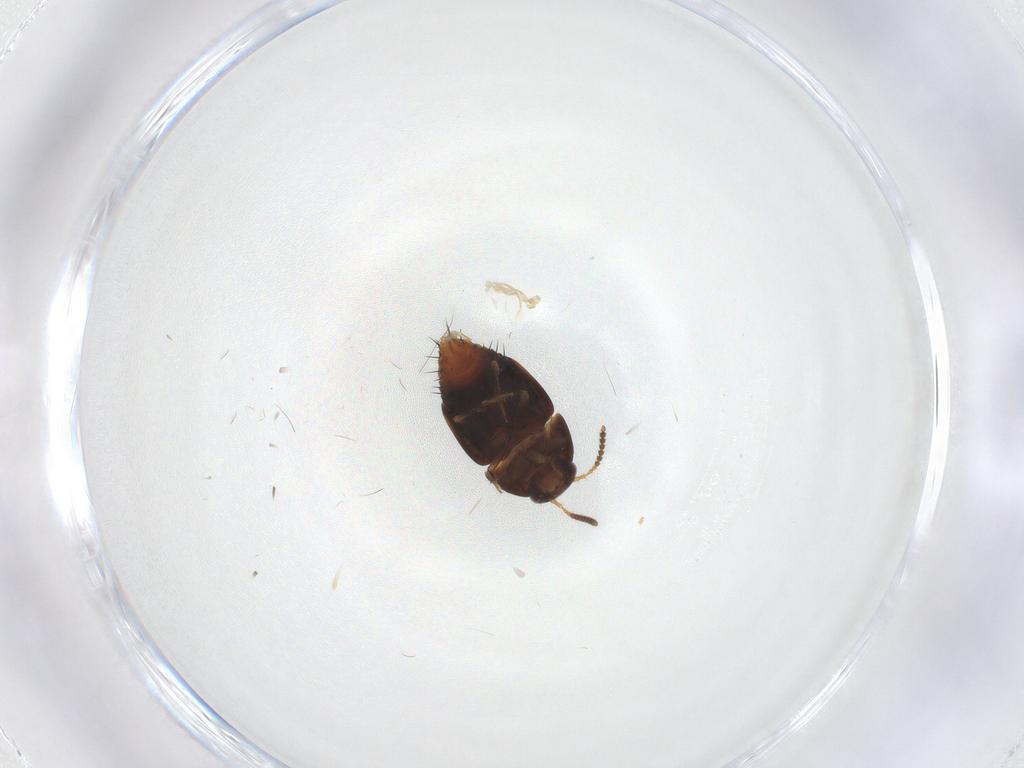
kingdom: Animalia
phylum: Arthropoda
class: Insecta
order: Coleoptera
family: Staphylinidae
